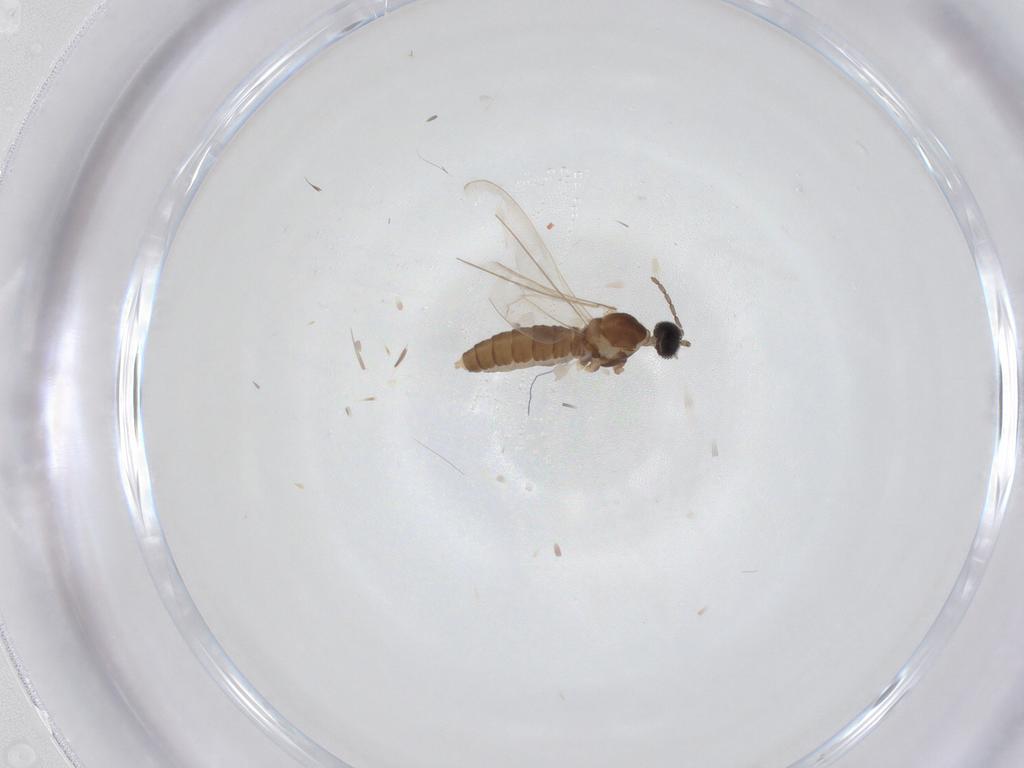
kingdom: Animalia
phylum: Arthropoda
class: Insecta
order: Diptera
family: Cecidomyiidae
